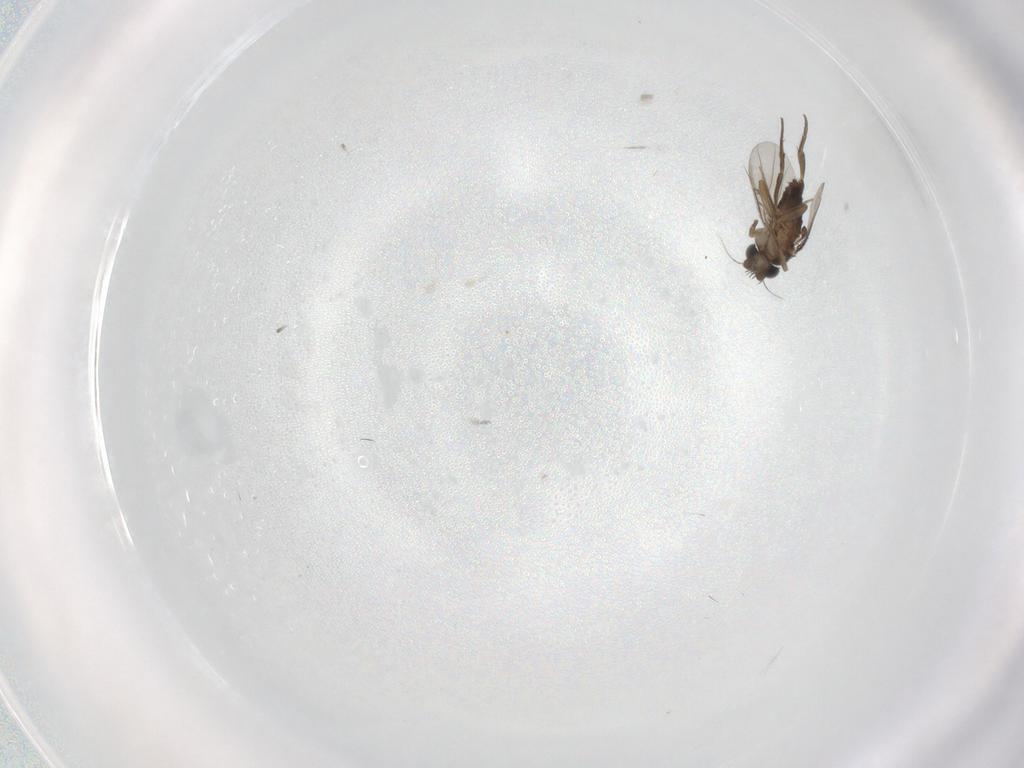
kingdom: Animalia
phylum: Arthropoda
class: Insecta
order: Diptera
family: Phoridae
